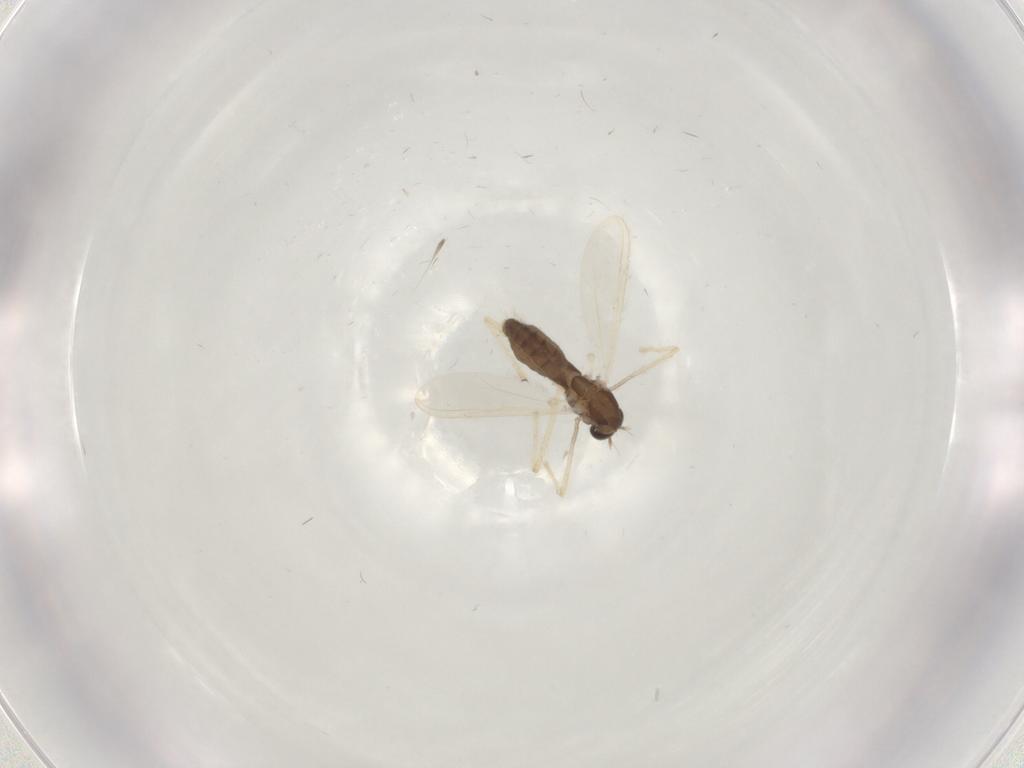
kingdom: Animalia
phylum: Arthropoda
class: Insecta
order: Diptera
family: Chironomidae
